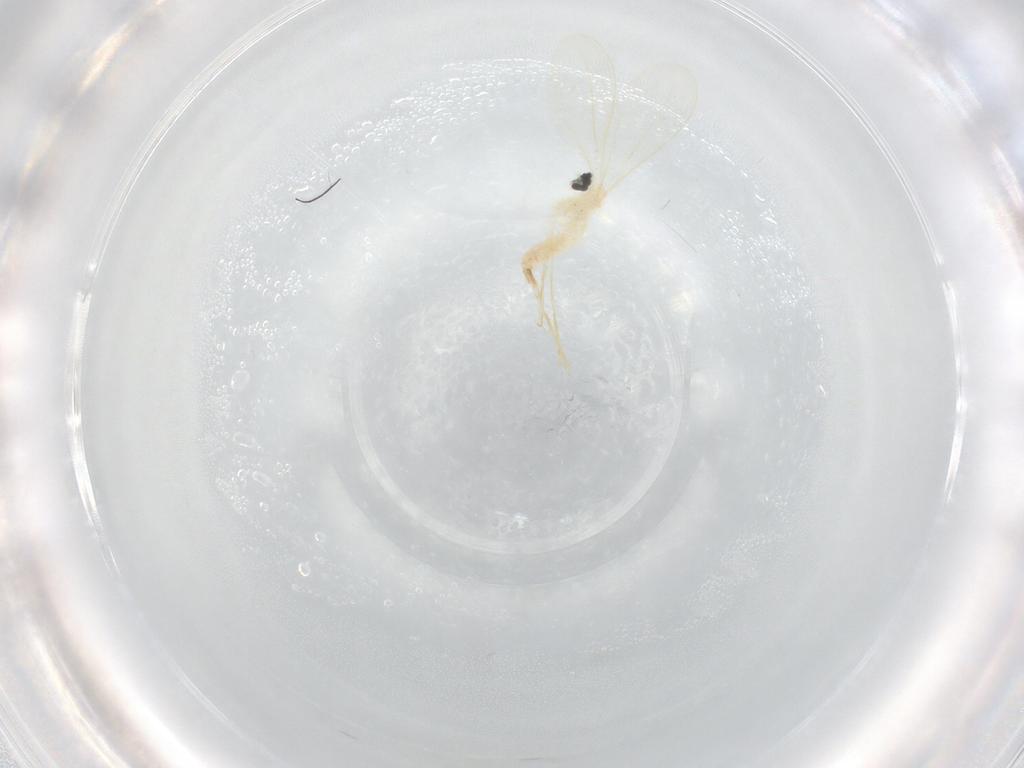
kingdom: Animalia
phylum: Arthropoda
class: Insecta
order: Diptera
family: Cecidomyiidae
